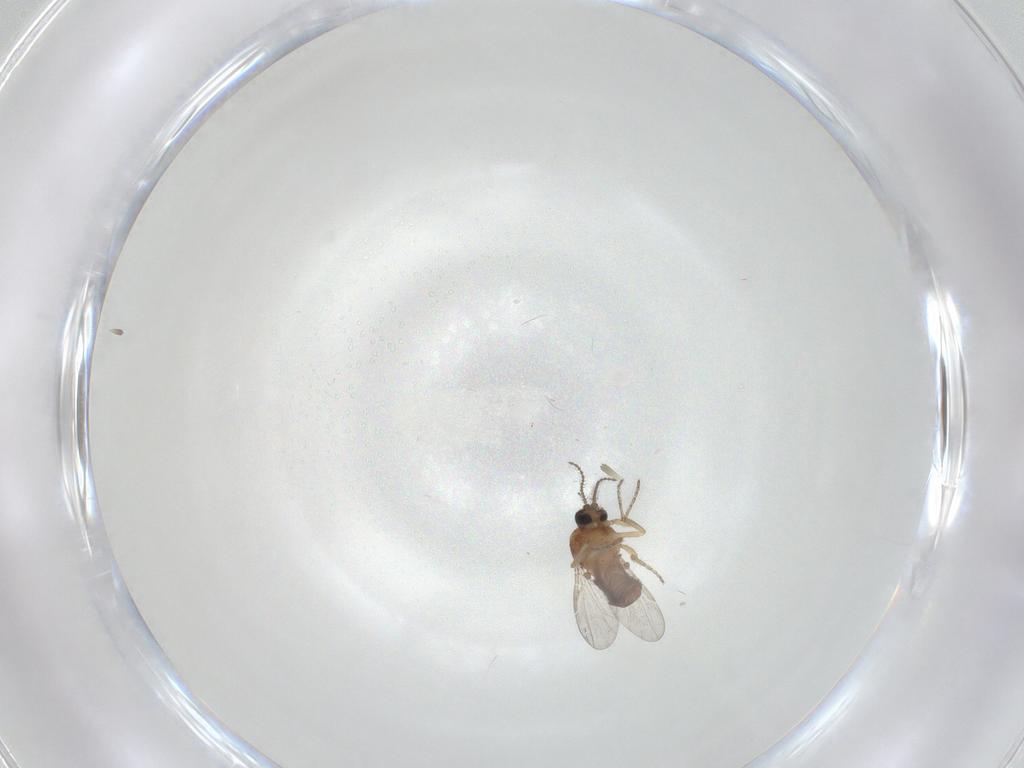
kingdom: Animalia
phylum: Arthropoda
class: Insecta
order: Diptera
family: Ceratopogonidae
